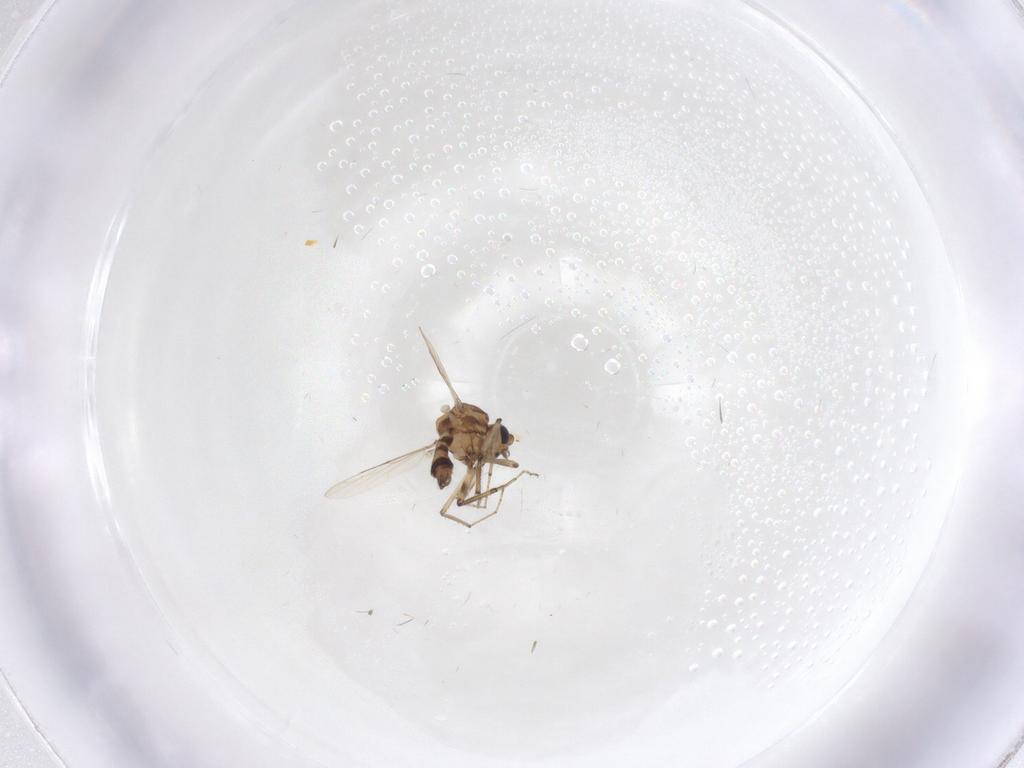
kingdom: Animalia
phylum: Arthropoda
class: Insecta
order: Diptera
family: Ceratopogonidae
